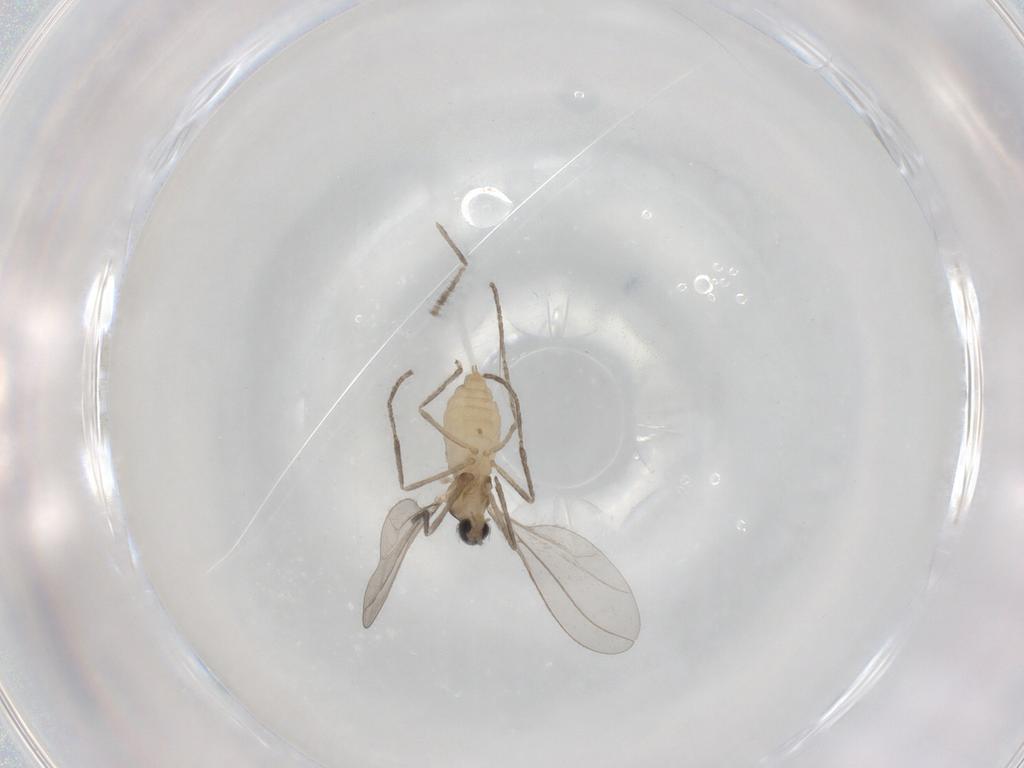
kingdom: Animalia
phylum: Arthropoda
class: Insecta
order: Diptera
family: Cecidomyiidae
